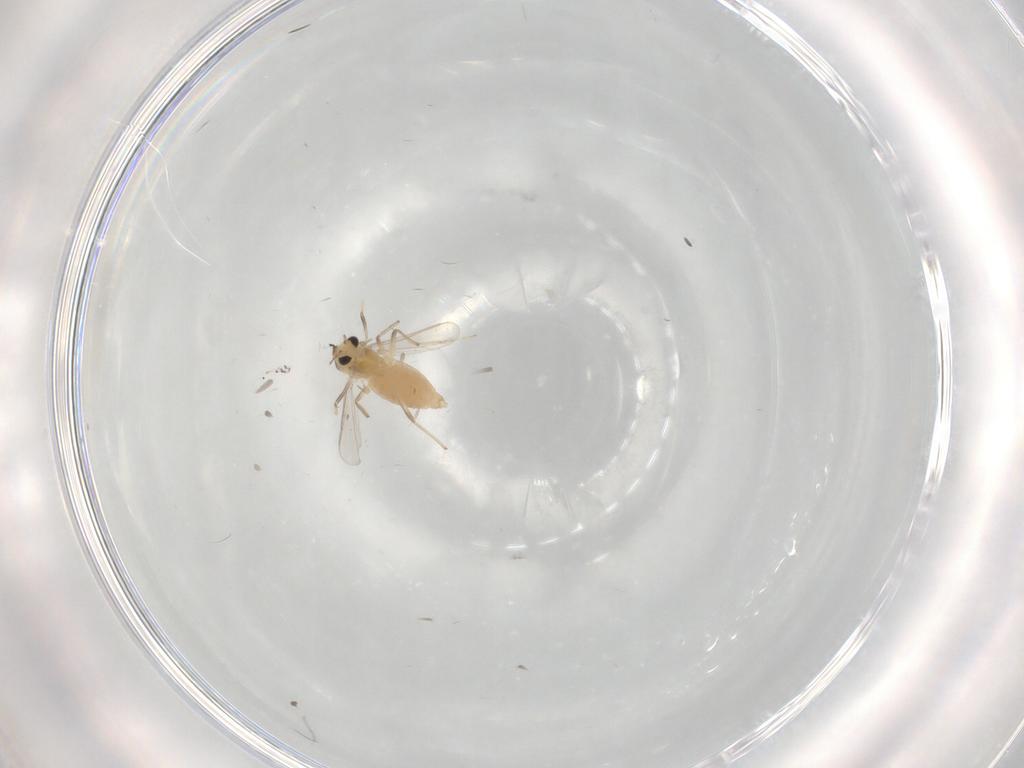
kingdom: Animalia
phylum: Arthropoda
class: Insecta
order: Diptera
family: Chironomidae
